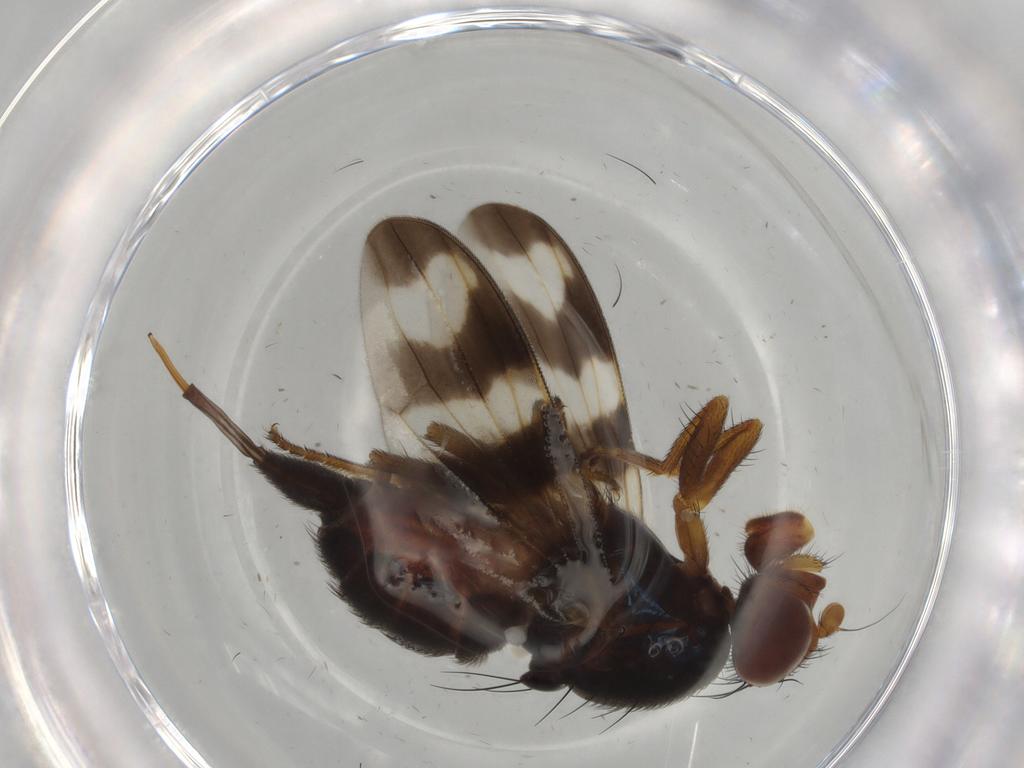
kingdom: Animalia
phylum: Arthropoda
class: Insecta
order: Diptera
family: Ulidiidae
